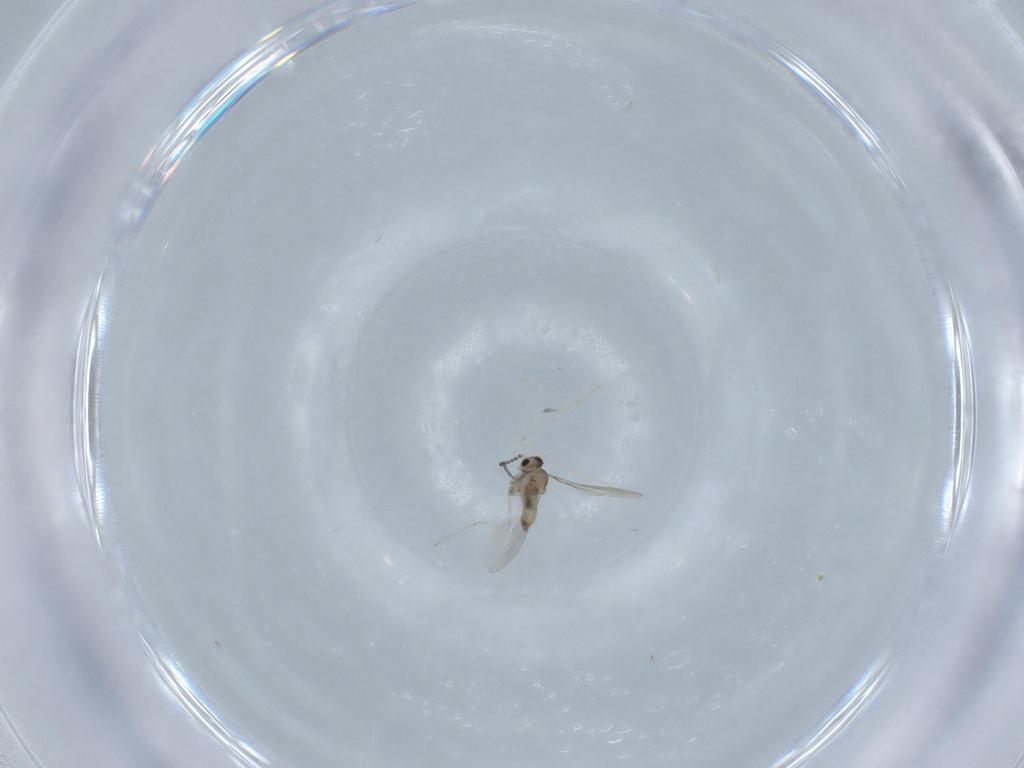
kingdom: Animalia
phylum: Arthropoda
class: Insecta
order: Diptera
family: Cecidomyiidae
